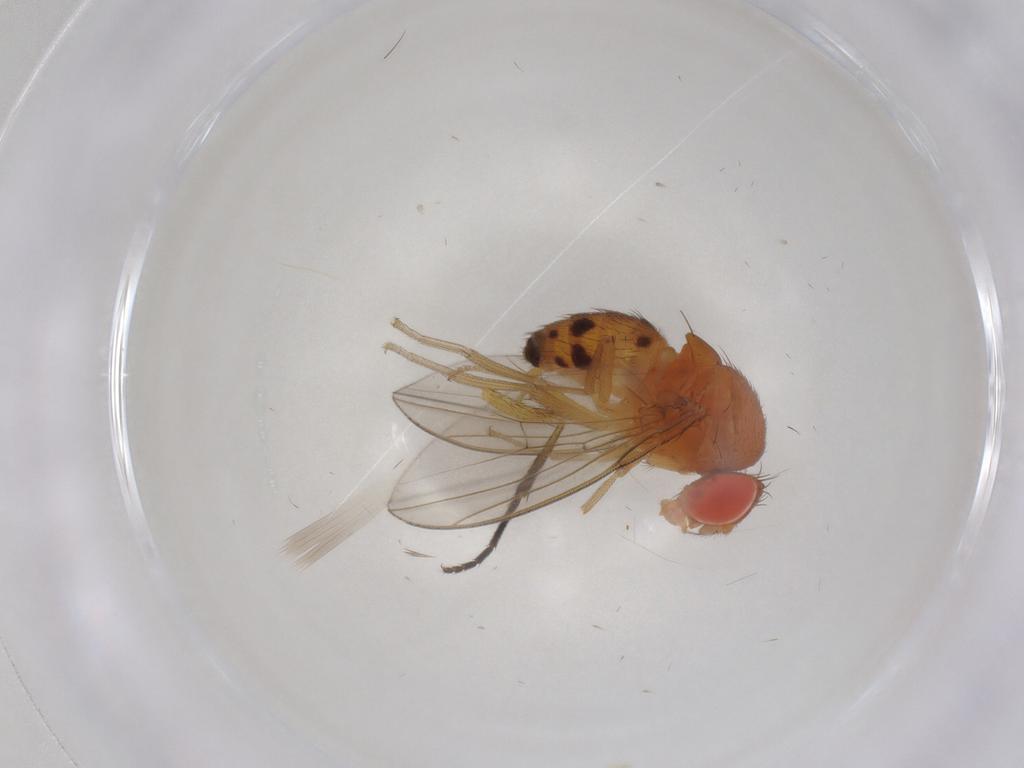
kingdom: Animalia
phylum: Arthropoda
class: Insecta
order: Diptera
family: Drosophilidae
